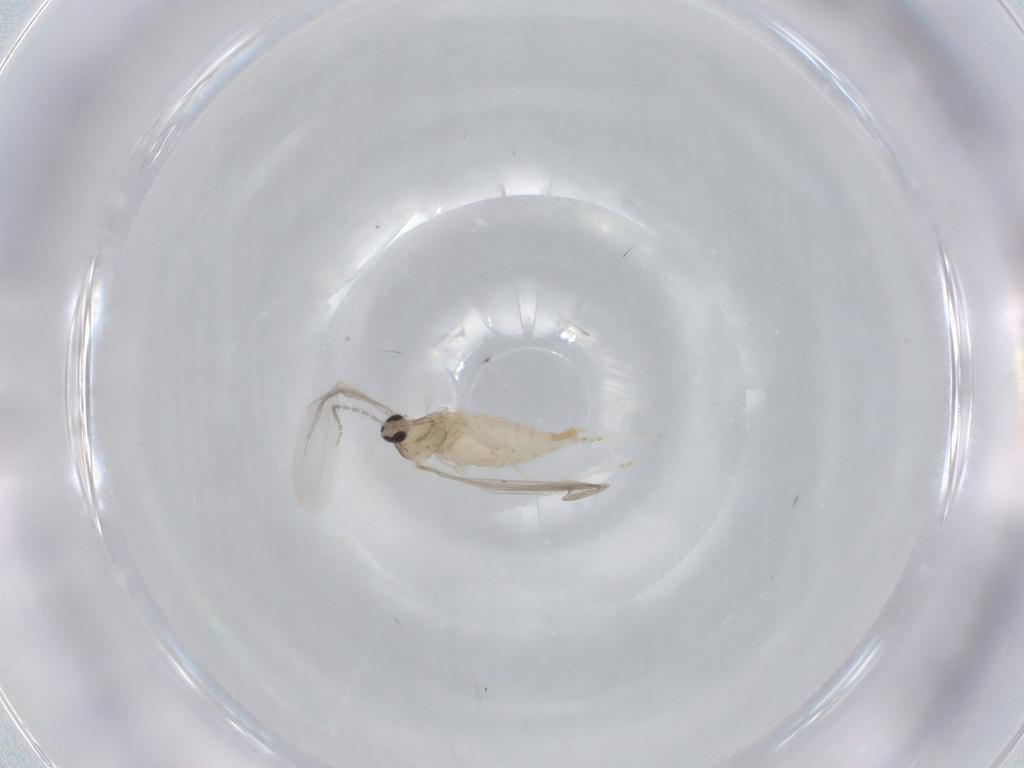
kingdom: Animalia
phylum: Arthropoda
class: Insecta
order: Diptera
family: Cecidomyiidae
